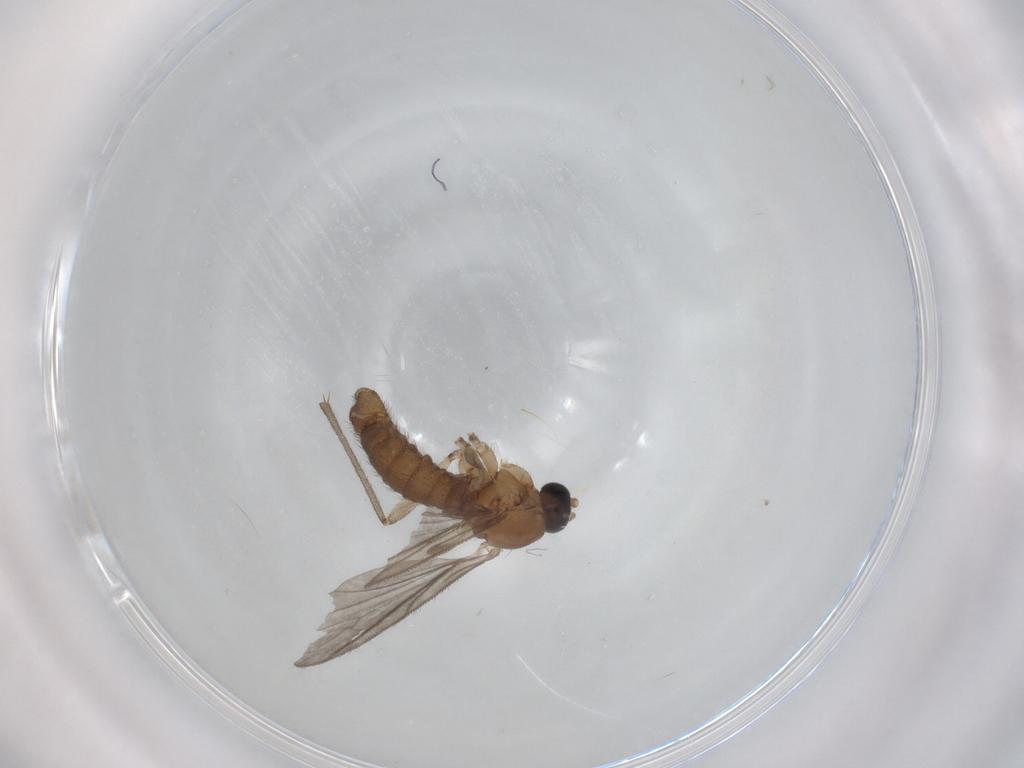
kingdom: Animalia
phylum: Arthropoda
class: Insecta
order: Diptera
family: Sciaridae
